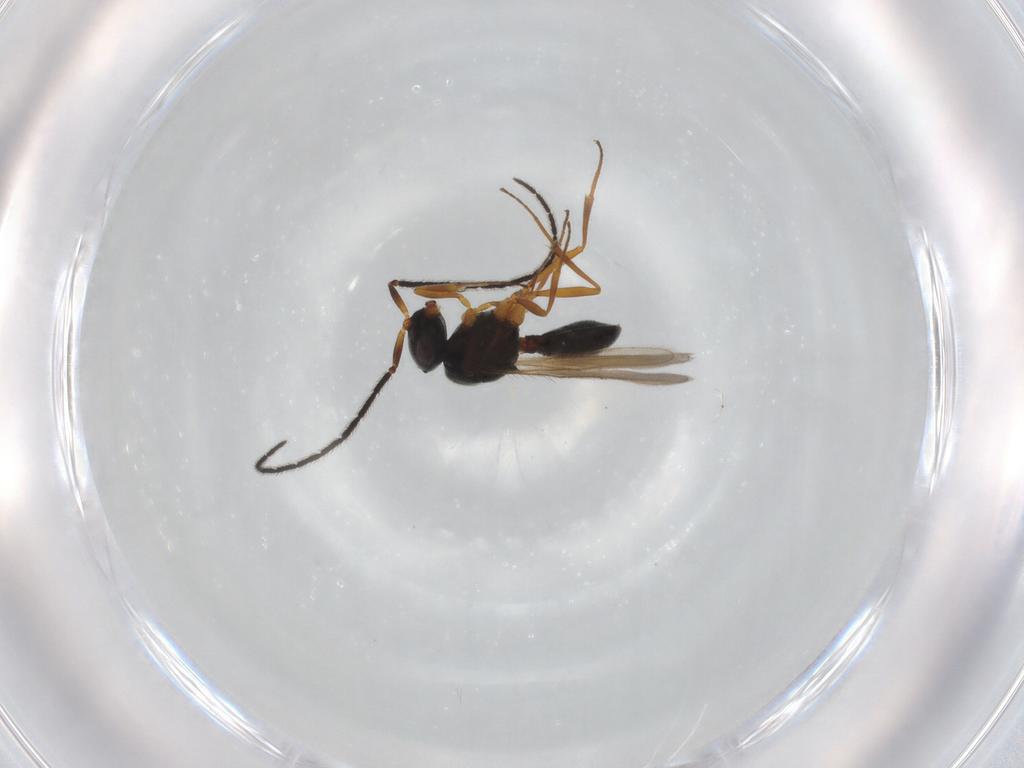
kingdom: Animalia
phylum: Arthropoda
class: Insecta
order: Hymenoptera
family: Scelionidae
